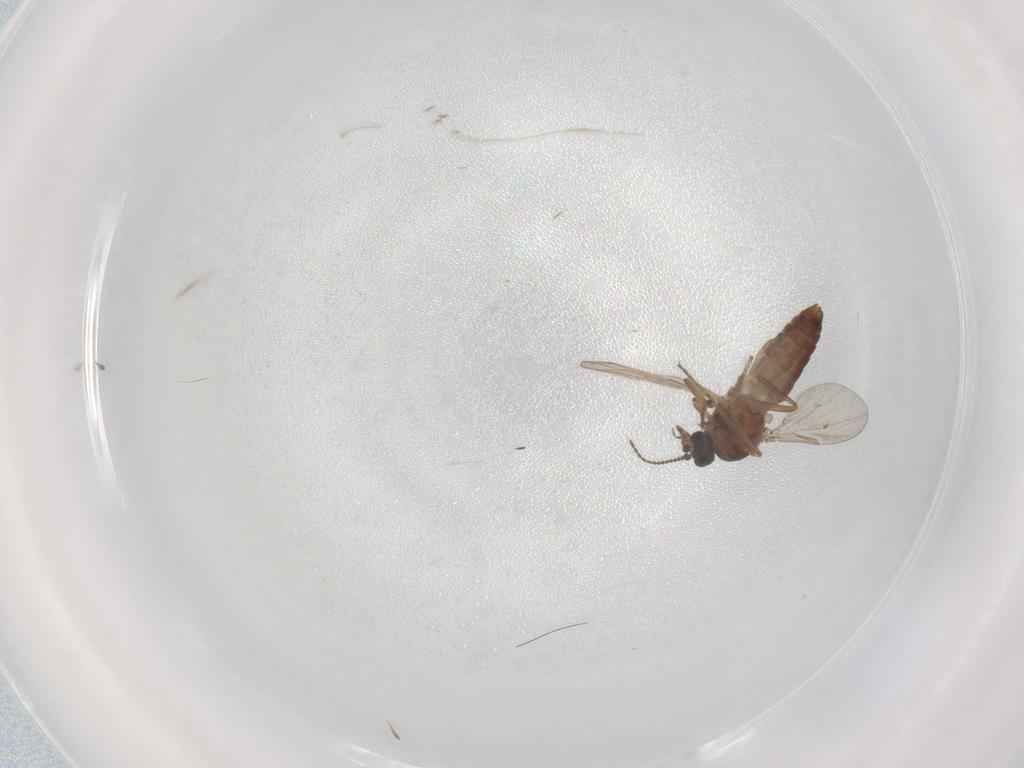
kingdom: Animalia
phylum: Arthropoda
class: Insecta
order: Diptera
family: Ceratopogonidae
